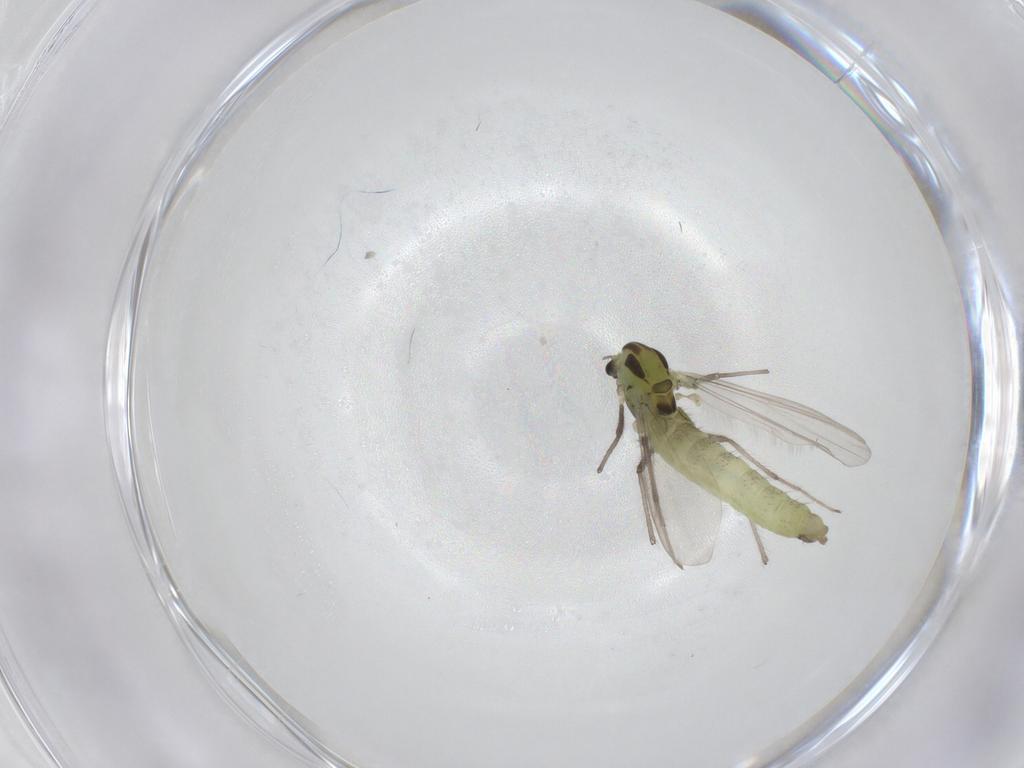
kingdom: Animalia
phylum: Arthropoda
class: Insecta
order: Diptera
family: Chironomidae
